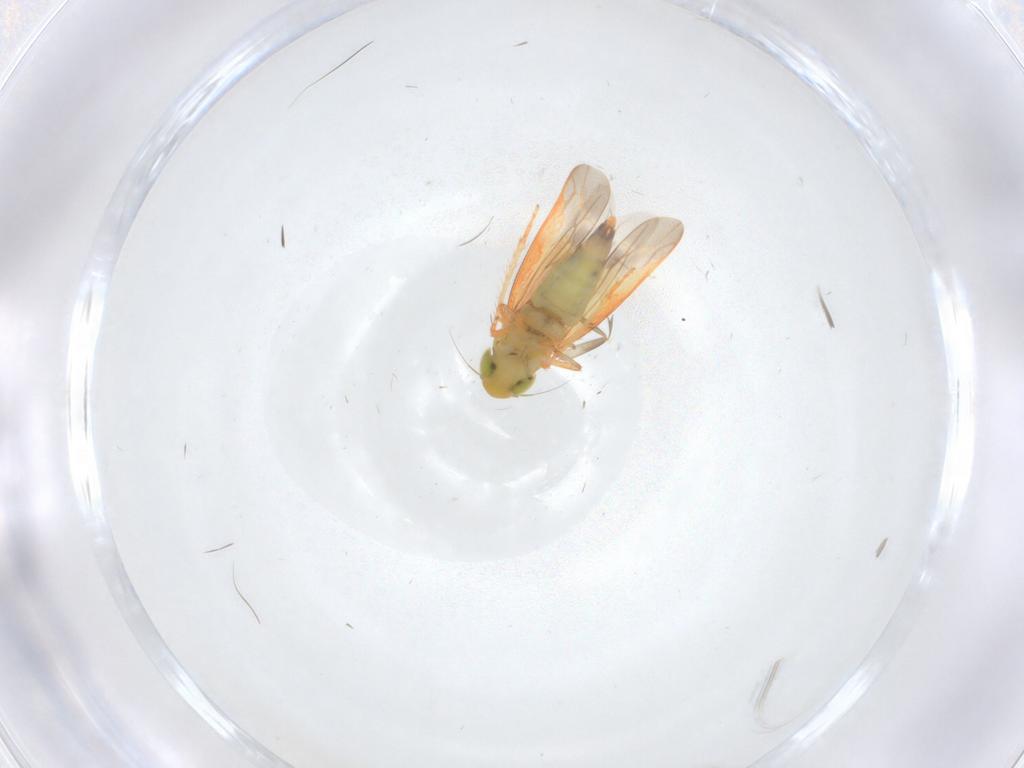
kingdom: Animalia
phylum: Arthropoda
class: Insecta
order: Hemiptera
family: Cicadellidae
